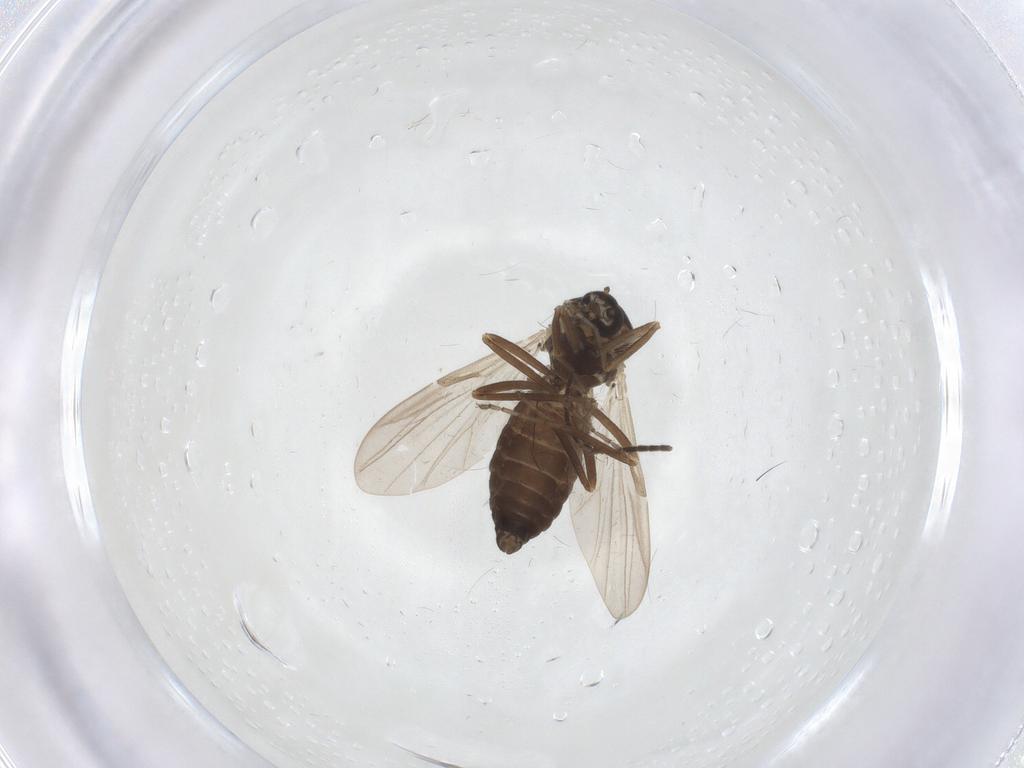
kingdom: Animalia
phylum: Arthropoda
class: Insecta
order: Diptera
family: Ceratopogonidae
